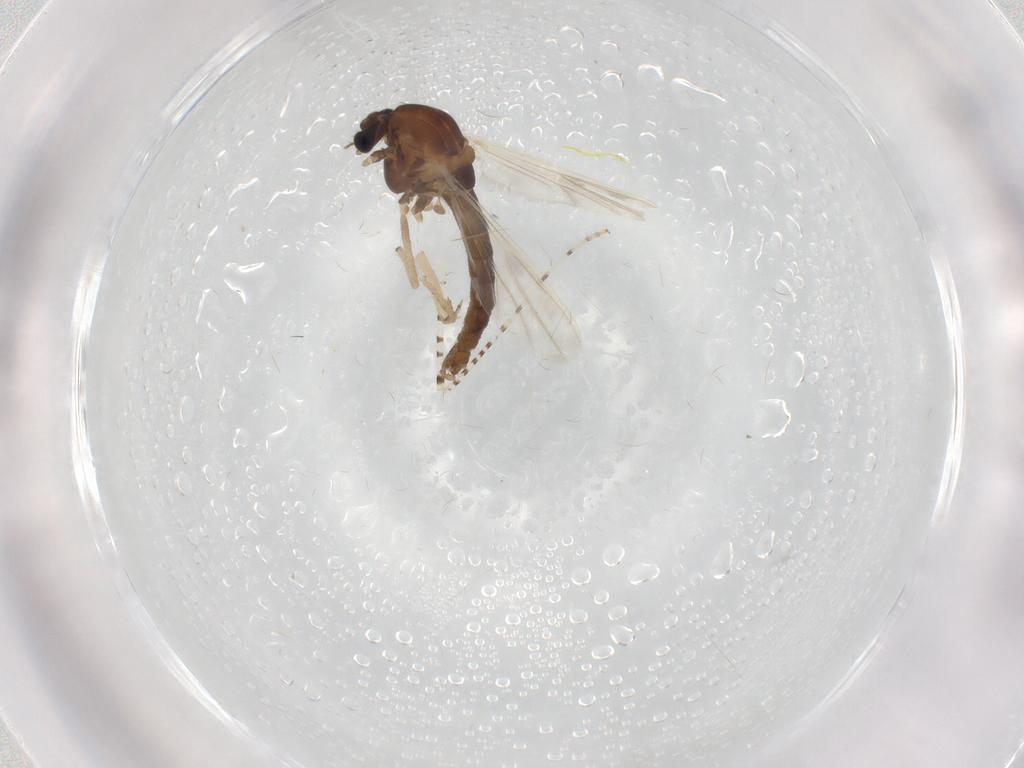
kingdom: Animalia
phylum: Arthropoda
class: Insecta
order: Diptera
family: Chironomidae
